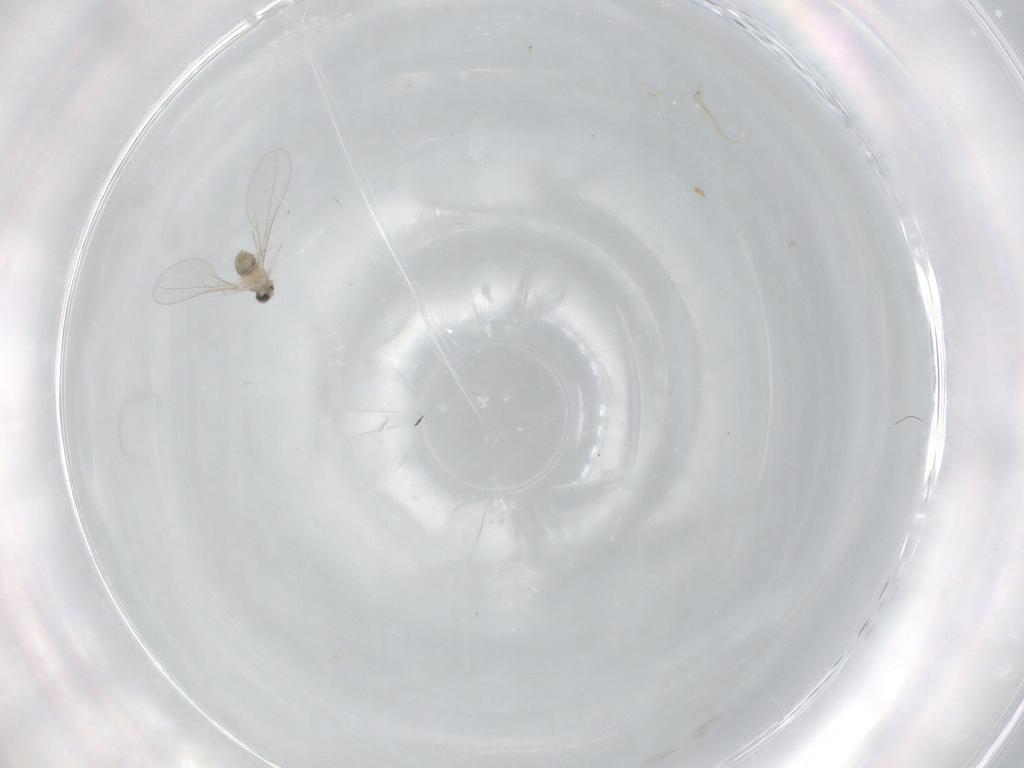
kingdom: Animalia
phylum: Arthropoda
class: Insecta
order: Diptera
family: Cecidomyiidae
